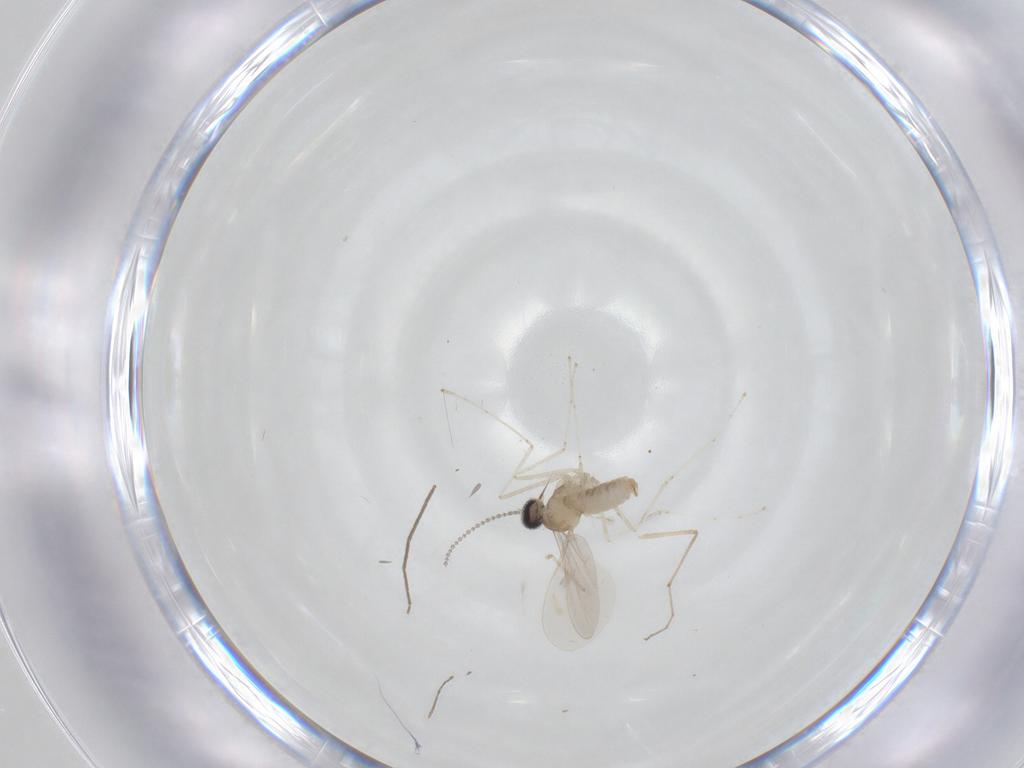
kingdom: Animalia
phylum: Arthropoda
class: Insecta
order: Diptera
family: Cecidomyiidae
